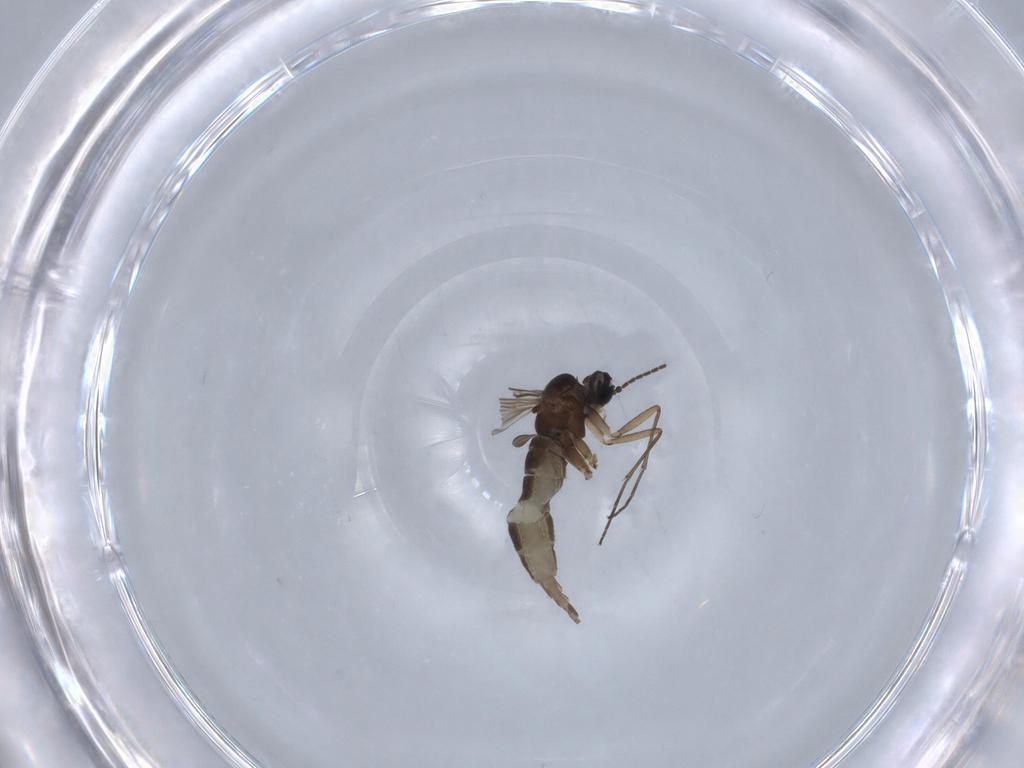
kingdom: Animalia
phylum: Arthropoda
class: Insecta
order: Diptera
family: Sciaridae
